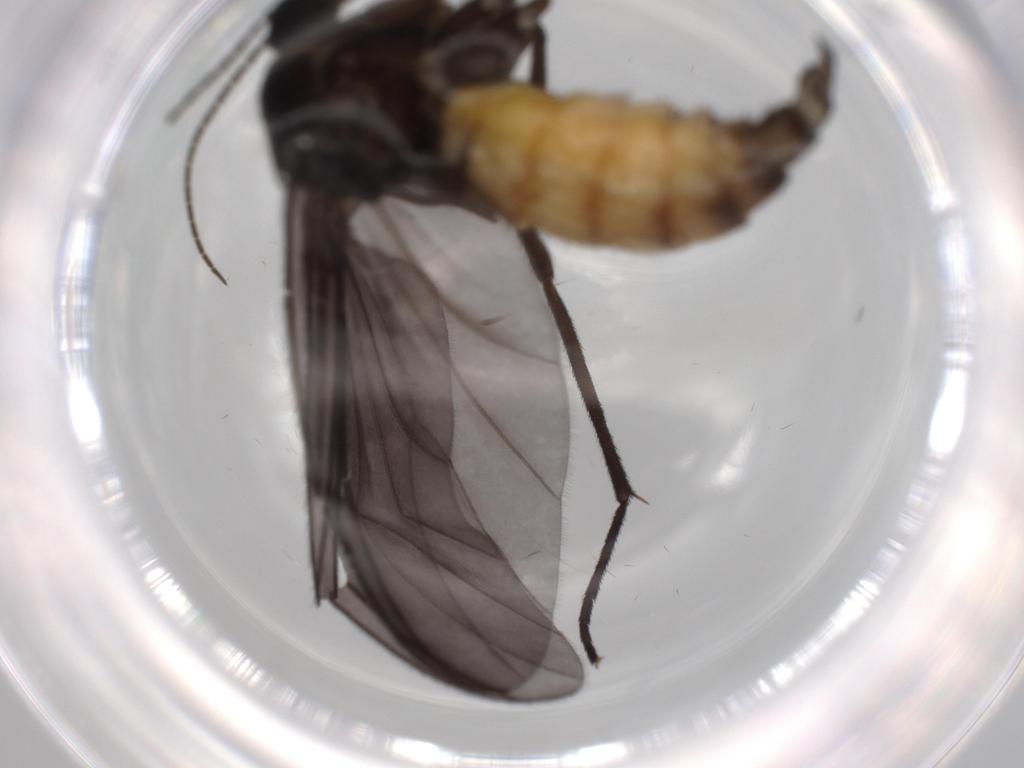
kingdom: Animalia
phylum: Arthropoda
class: Insecta
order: Diptera
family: Sciaridae
